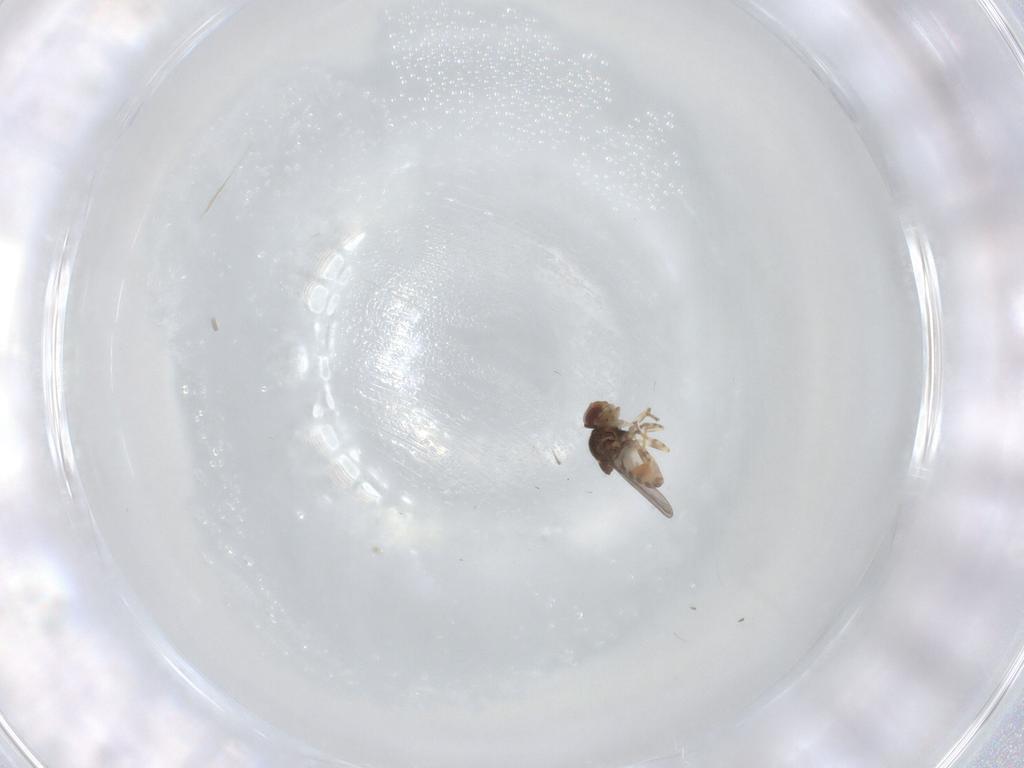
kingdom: Animalia
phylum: Arthropoda
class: Insecta
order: Diptera
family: Chloropidae
